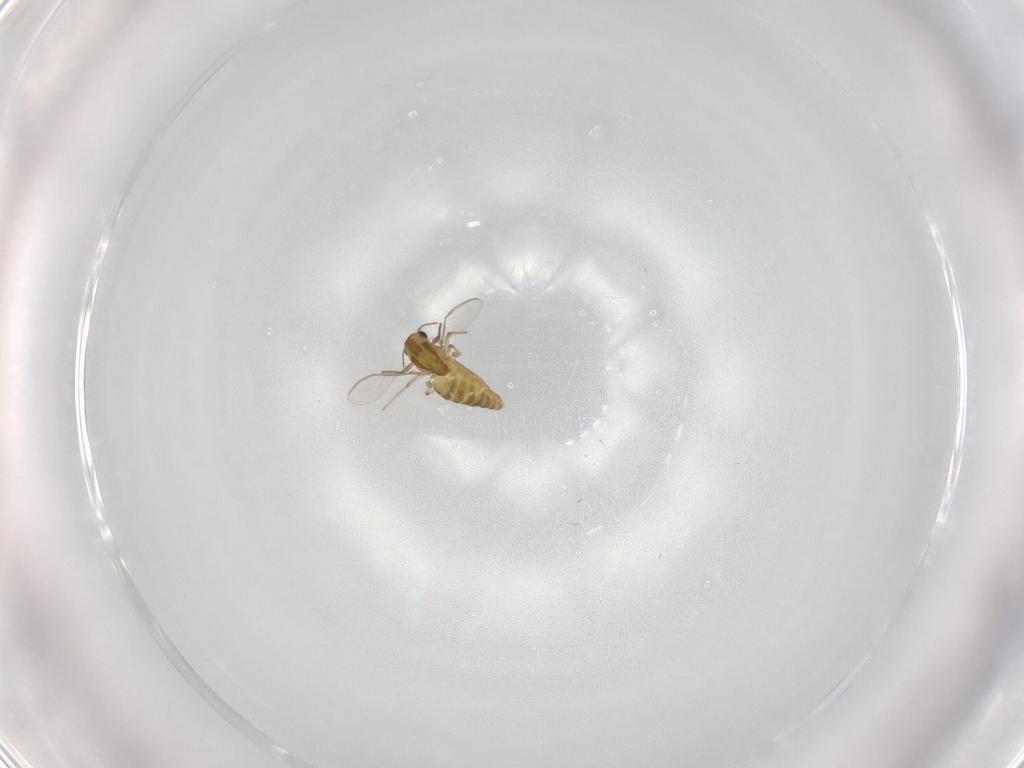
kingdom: Animalia
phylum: Arthropoda
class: Insecta
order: Diptera
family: Chironomidae
